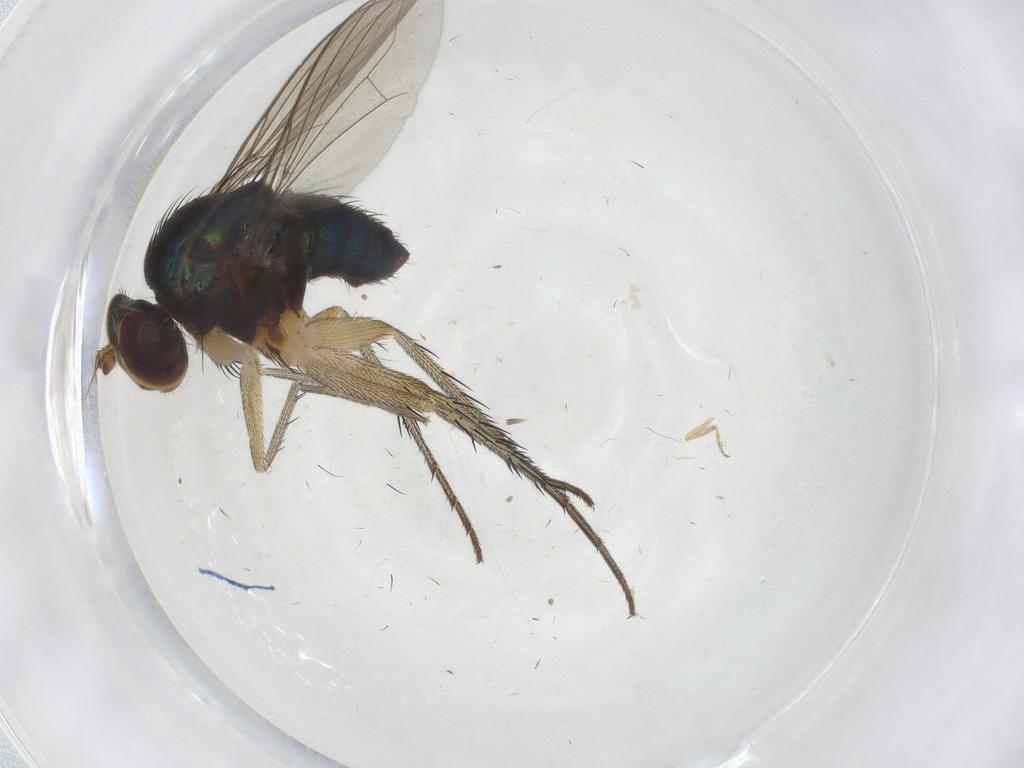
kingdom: Animalia
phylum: Arthropoda
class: Insecta
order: Diptera
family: Dolichopodidae
